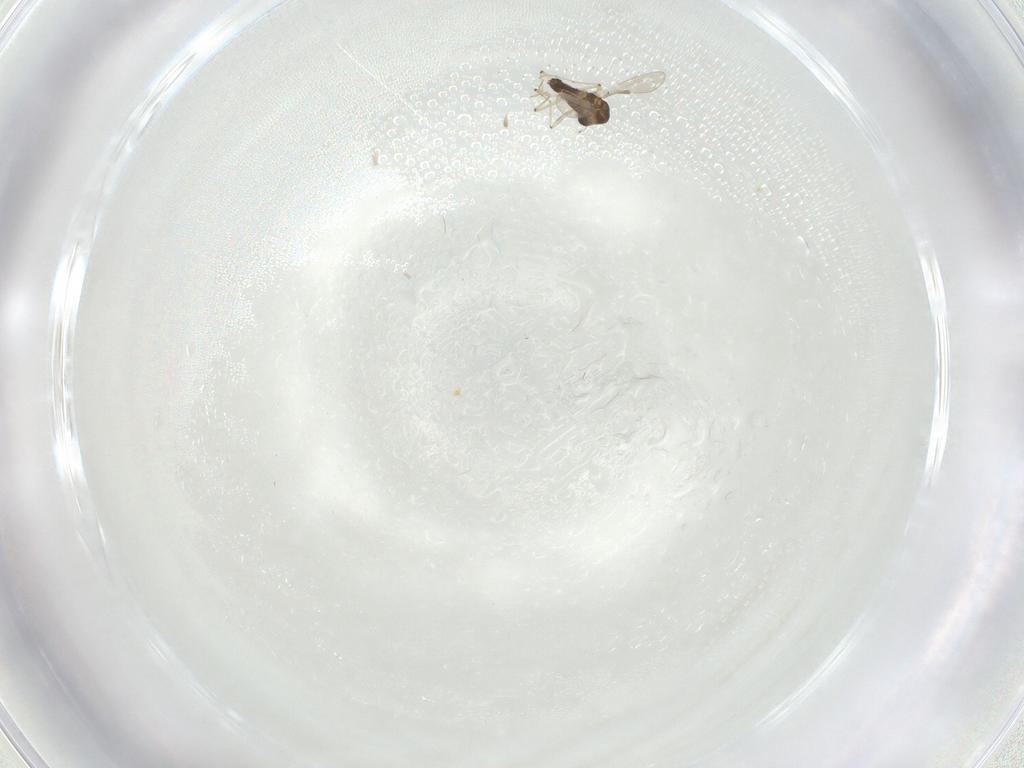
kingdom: Animalia
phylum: Arthropoda
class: Insecta
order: Diptera
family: Chironomidae
